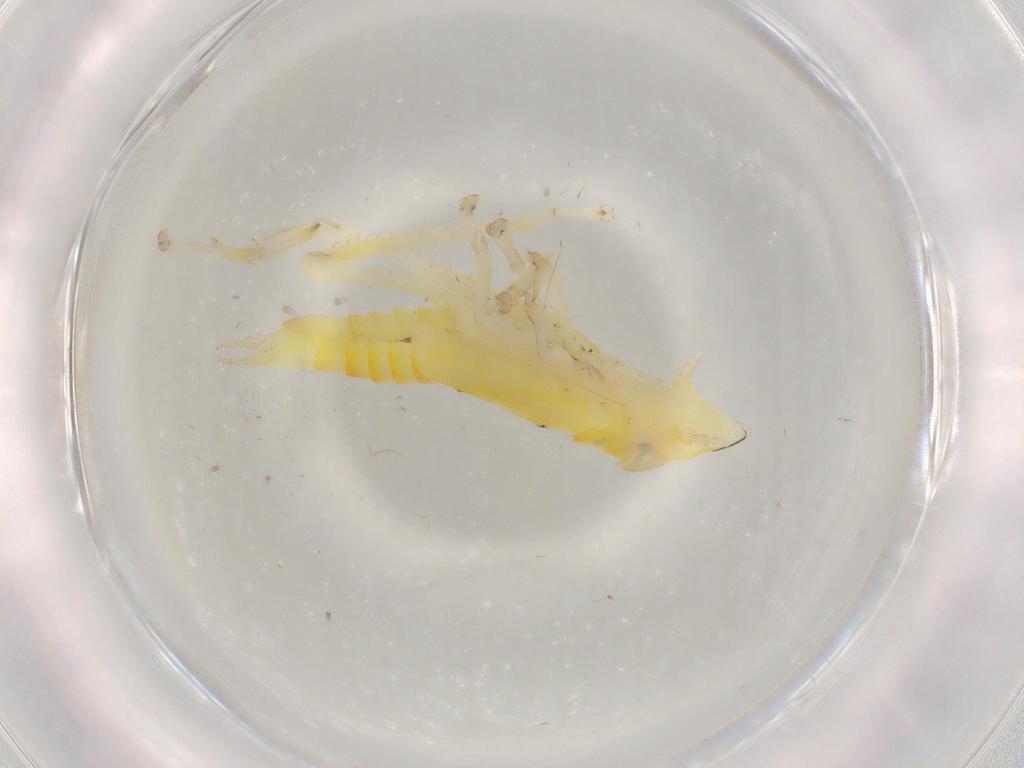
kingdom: Animalia
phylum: Arthropoda
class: Insecta
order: Hemiptera
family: Cicadellidae
